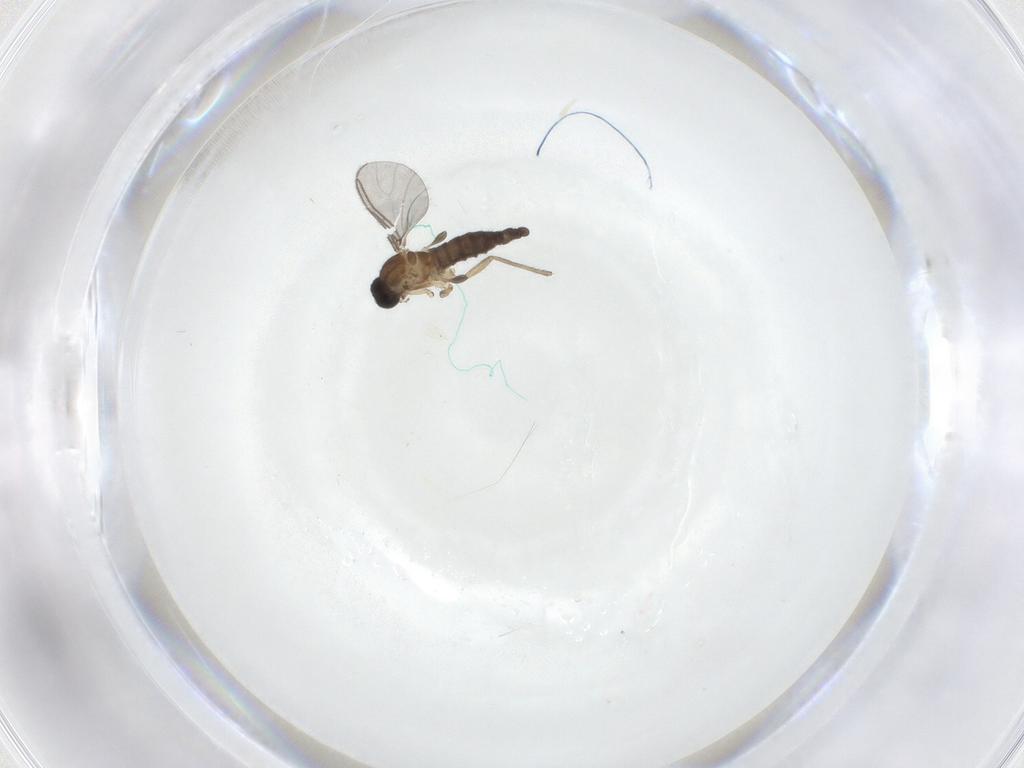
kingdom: Animalia
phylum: Arthropoda
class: Insecta
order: Diptera
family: Sciaridae
